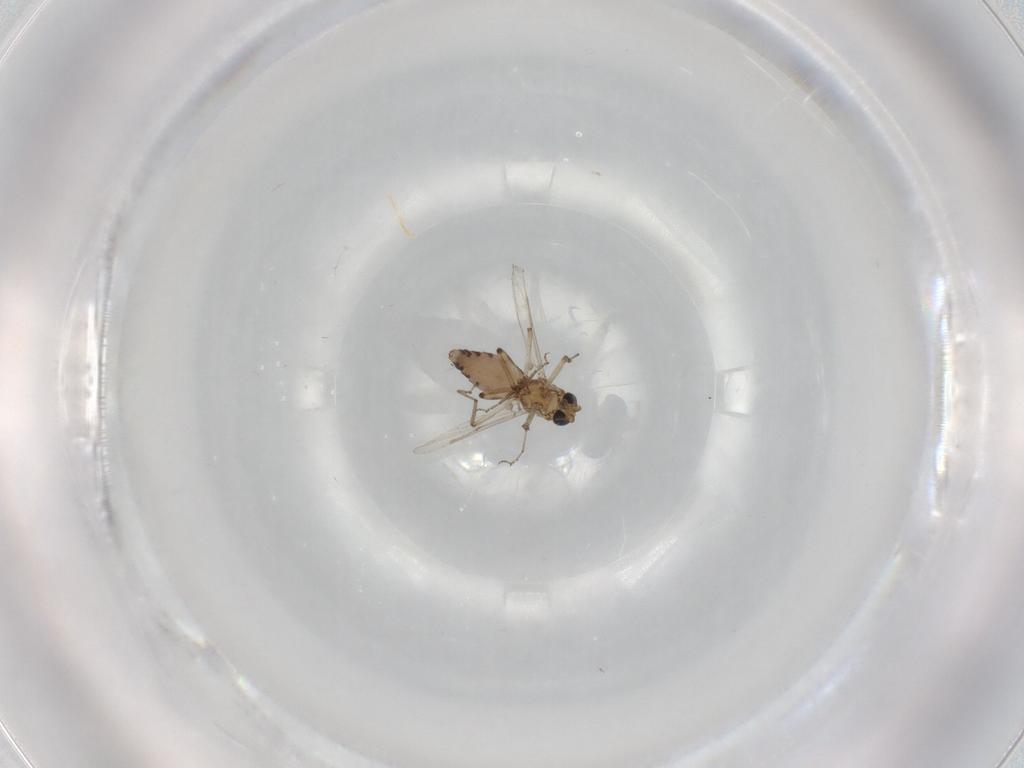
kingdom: Animalia
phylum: Arthropoda
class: Insecta
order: Diptera
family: Ceratopogonidae
